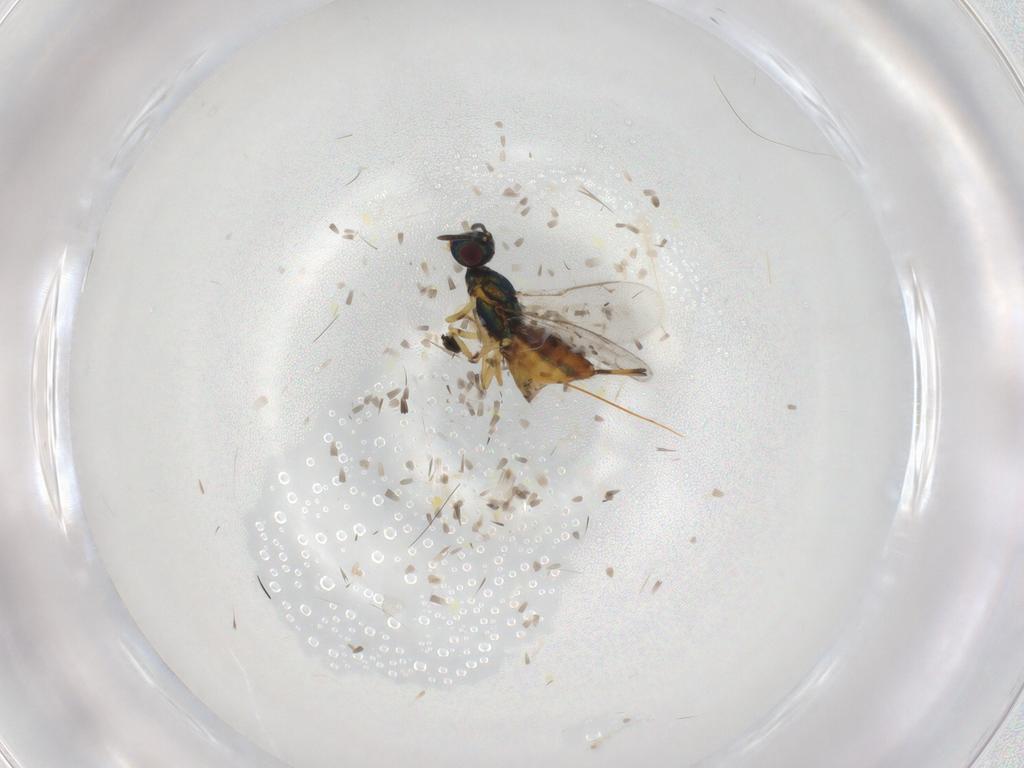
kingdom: Animalia
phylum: Arthropoda
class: Insecta
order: Hymenoptera
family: Eupelmidae
